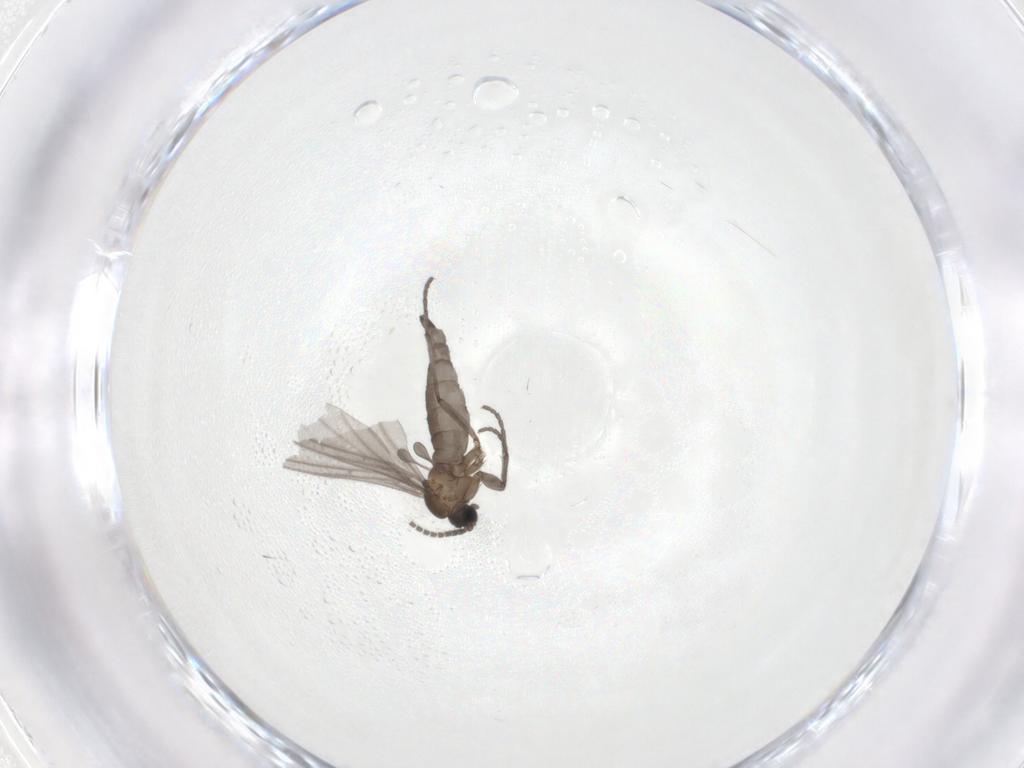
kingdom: Animalia
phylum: Arthropoda
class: Insecta
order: Diptera
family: Sciaridae
